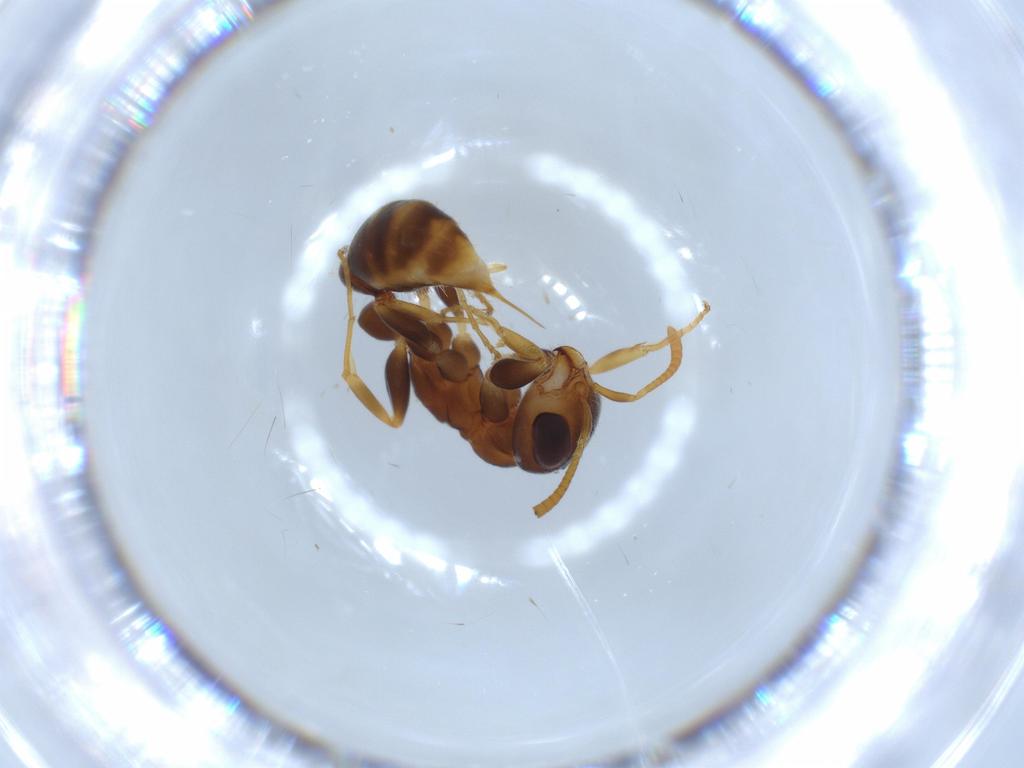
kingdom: Animalia
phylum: Arthropoda
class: Insecta
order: Hymenoptera
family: Formicidae
